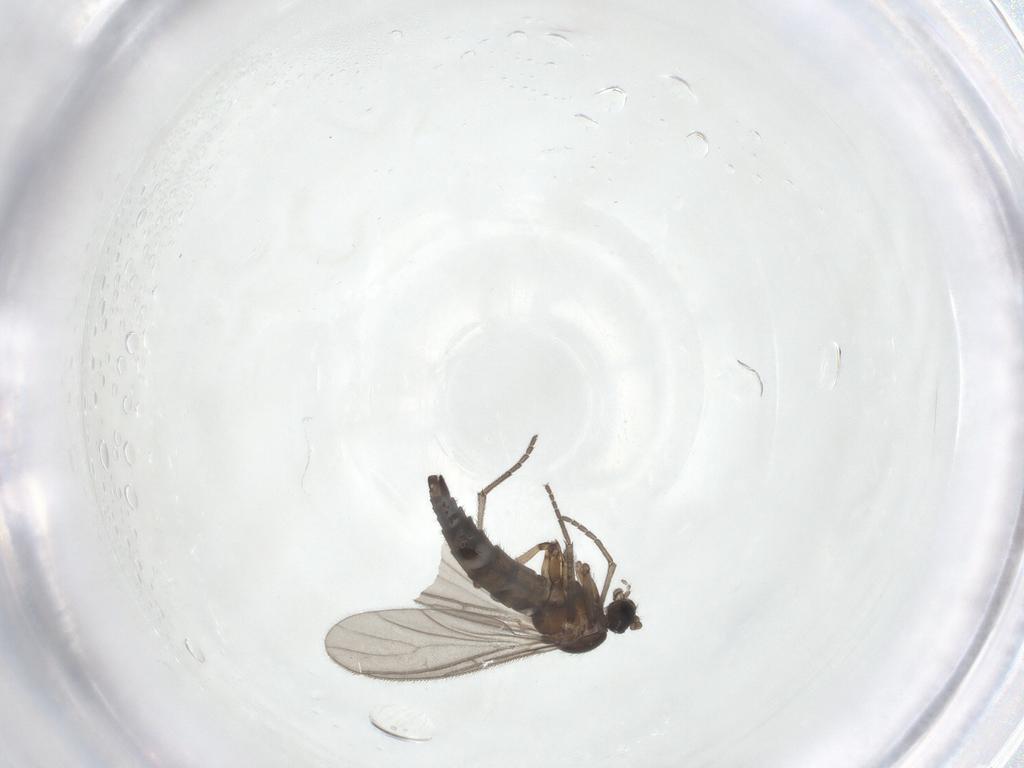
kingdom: Animalia
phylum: Arthropoda
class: Insecta
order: Diptera
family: Sciaridae
